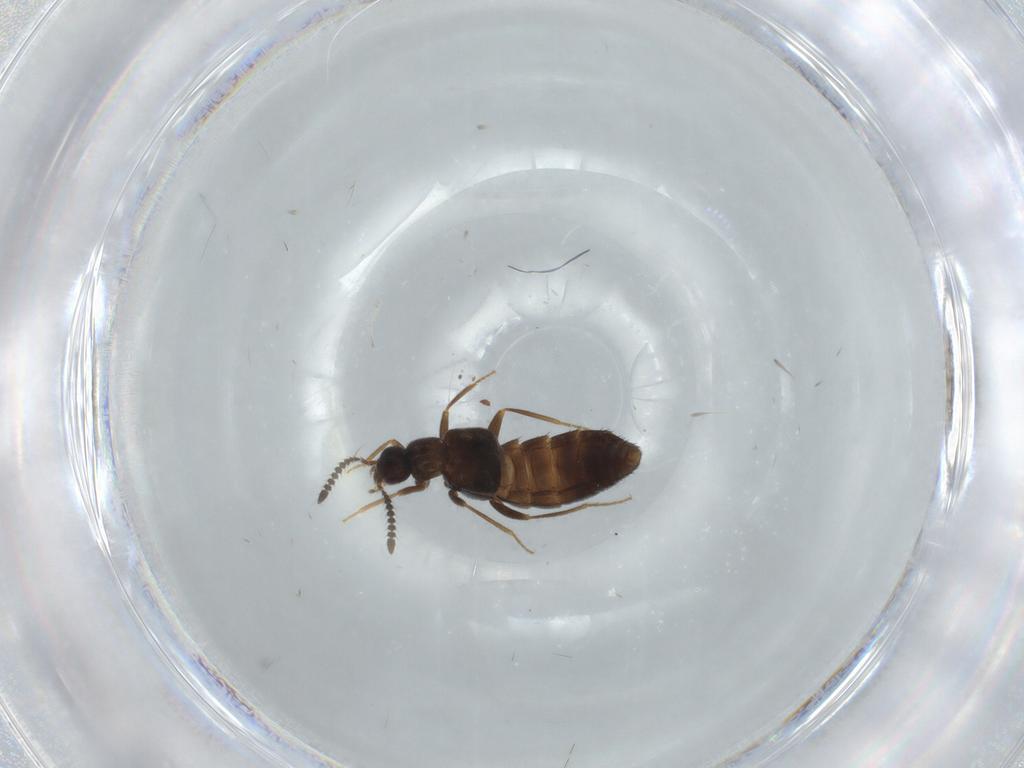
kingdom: Animalia
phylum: Arthropoda
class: Insecta
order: Coleoptera
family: Staphylinidae
